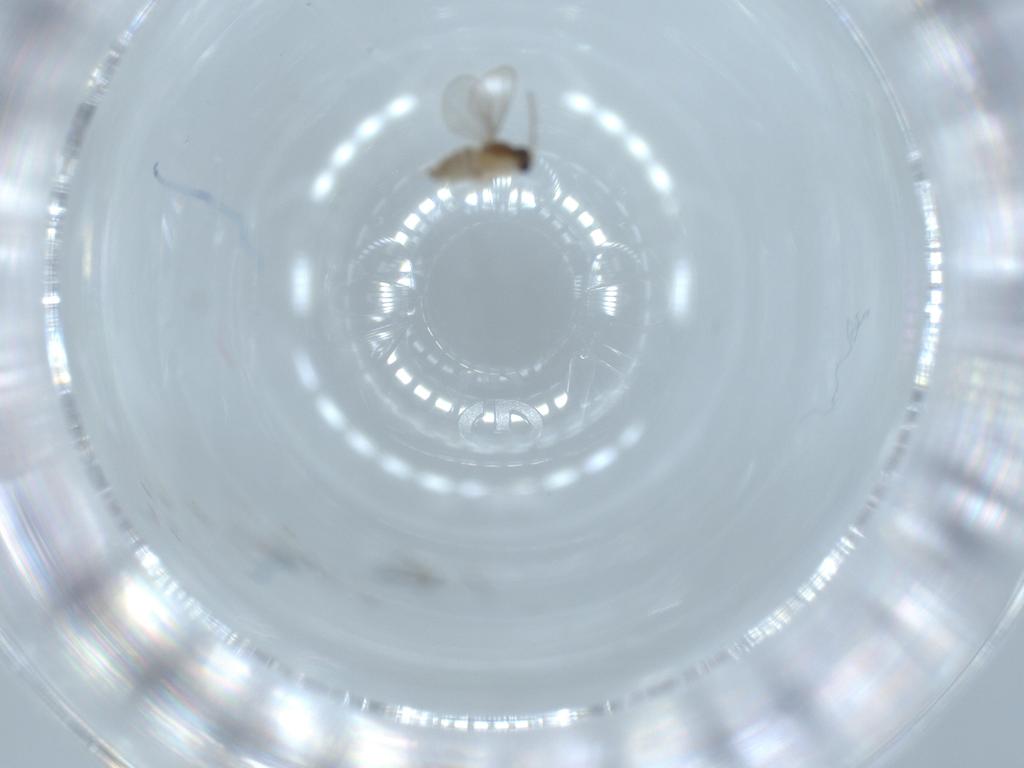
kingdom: Animalia
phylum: Arthropoda
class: Insecta
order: Diptera
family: Cecidomyiidae
